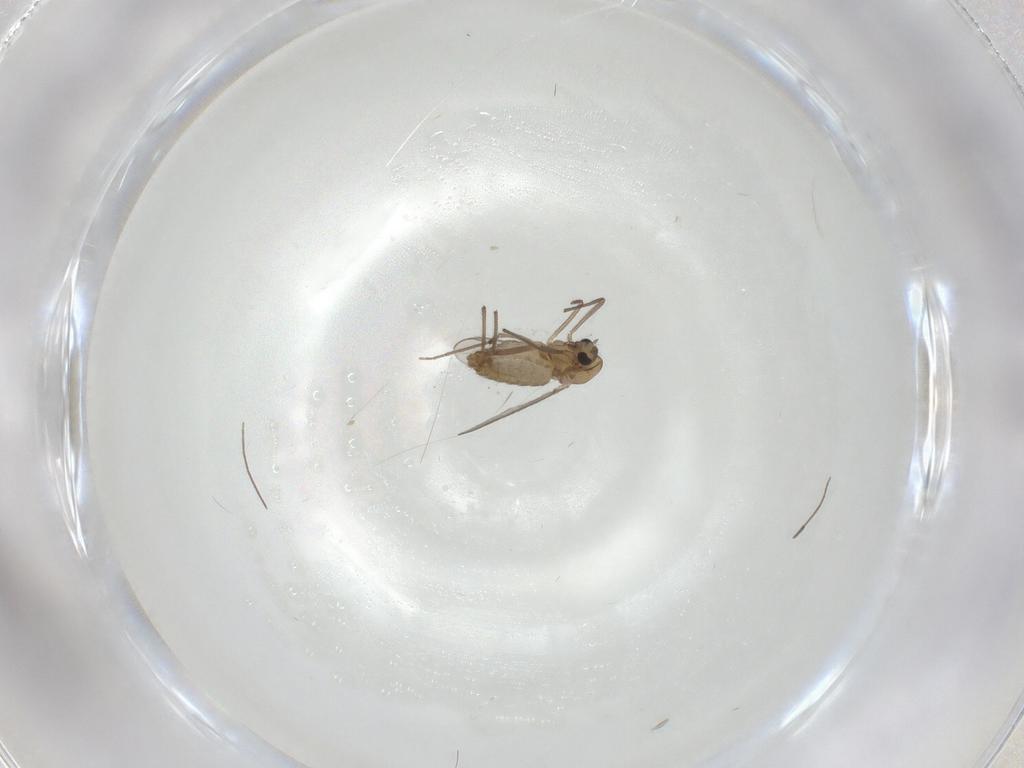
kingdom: Animalia
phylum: Arthropoda
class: Insecta
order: Diptera
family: Chironomidae
